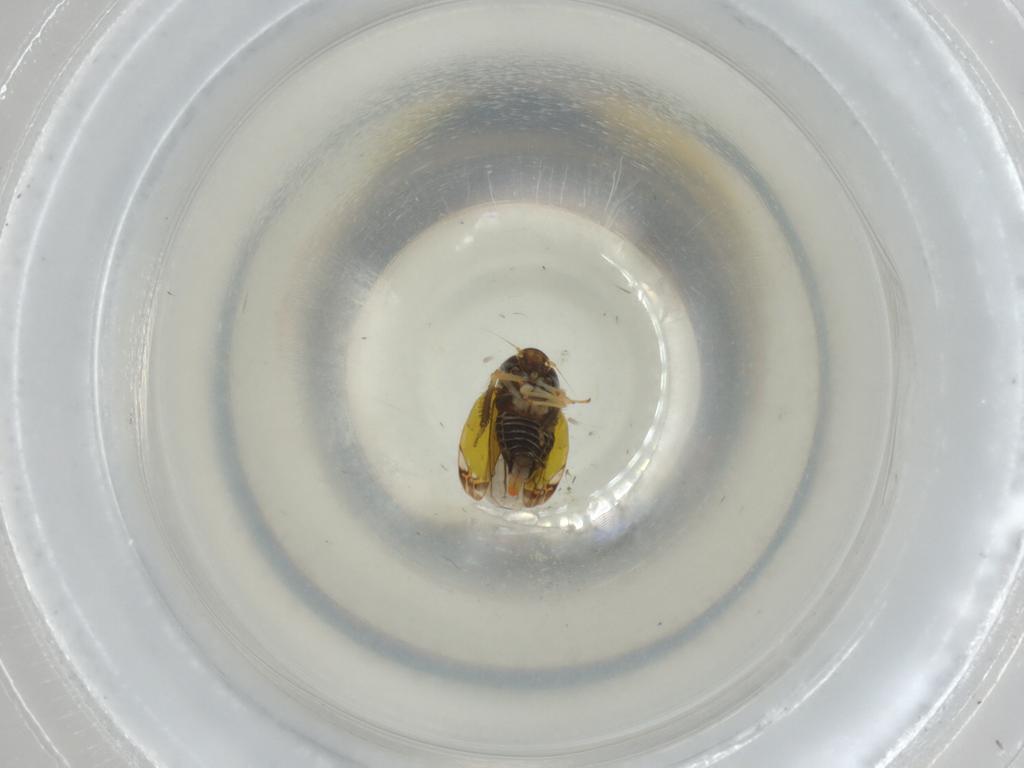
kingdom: Animalia
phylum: Arthropoda
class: Insecta
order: Hemiptera
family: Cicadellidae
